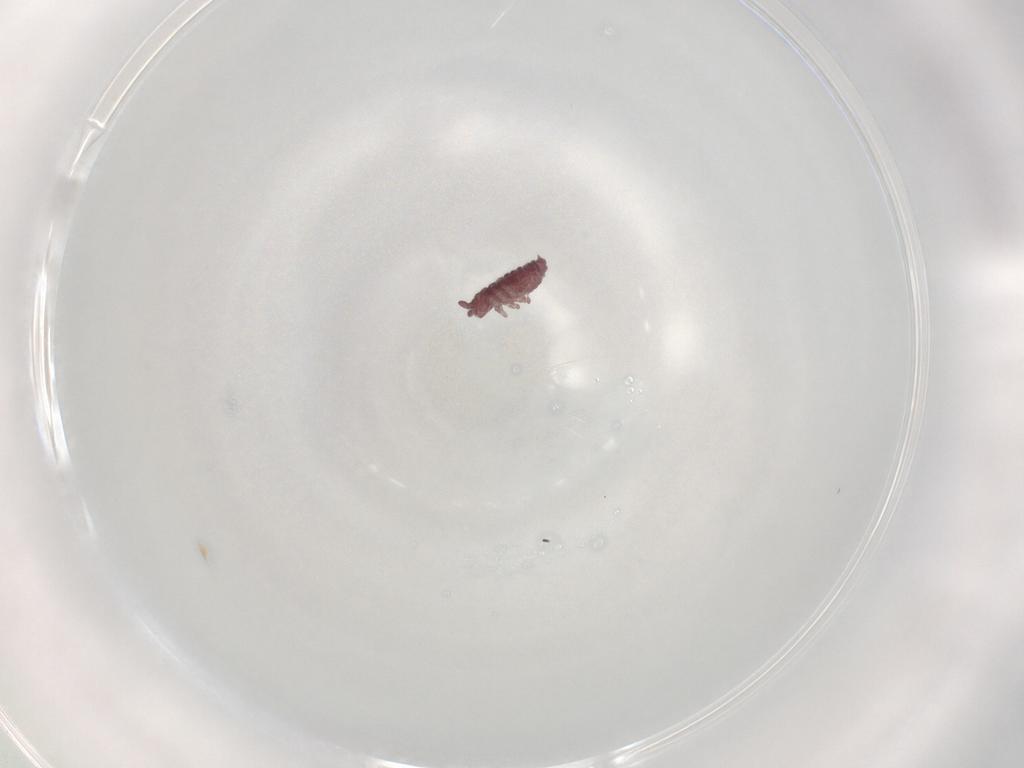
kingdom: Animalia
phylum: Arthropoda
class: Collembola
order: Poduromorpha
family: Hypogastruridae
